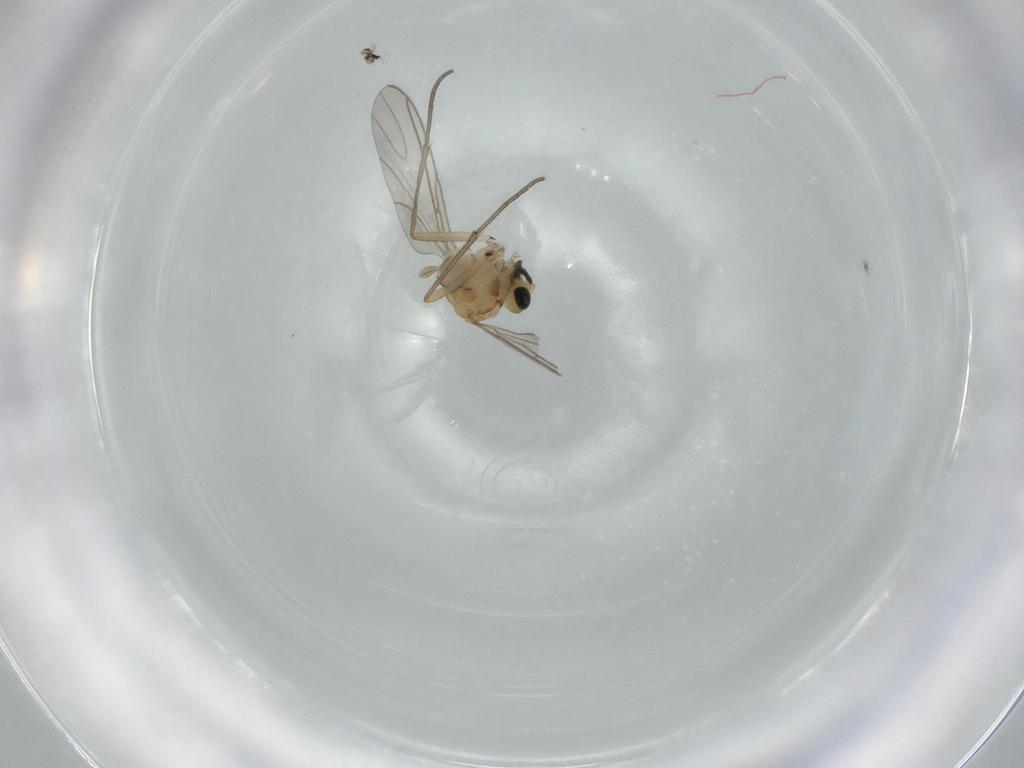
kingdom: Animalia
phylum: Arthropoda
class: Insecta
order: Diptera
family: Sciaridae
